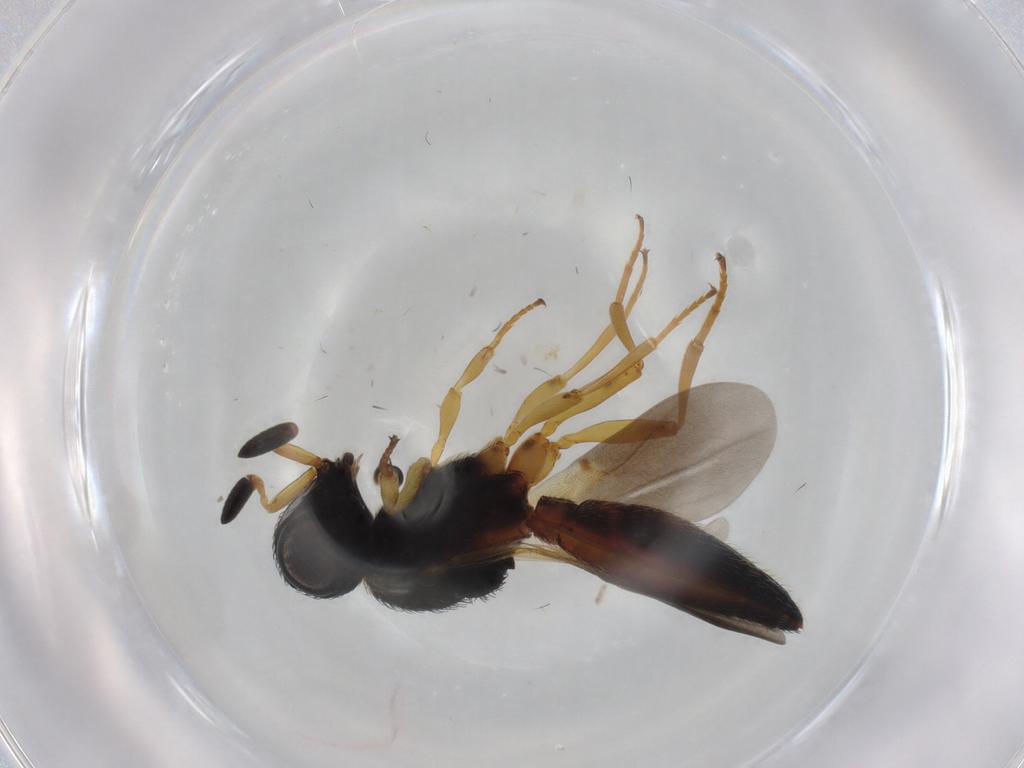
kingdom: Animalia
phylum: Arthropoda
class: Insecta
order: Hymenoptera
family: Scelionidae
